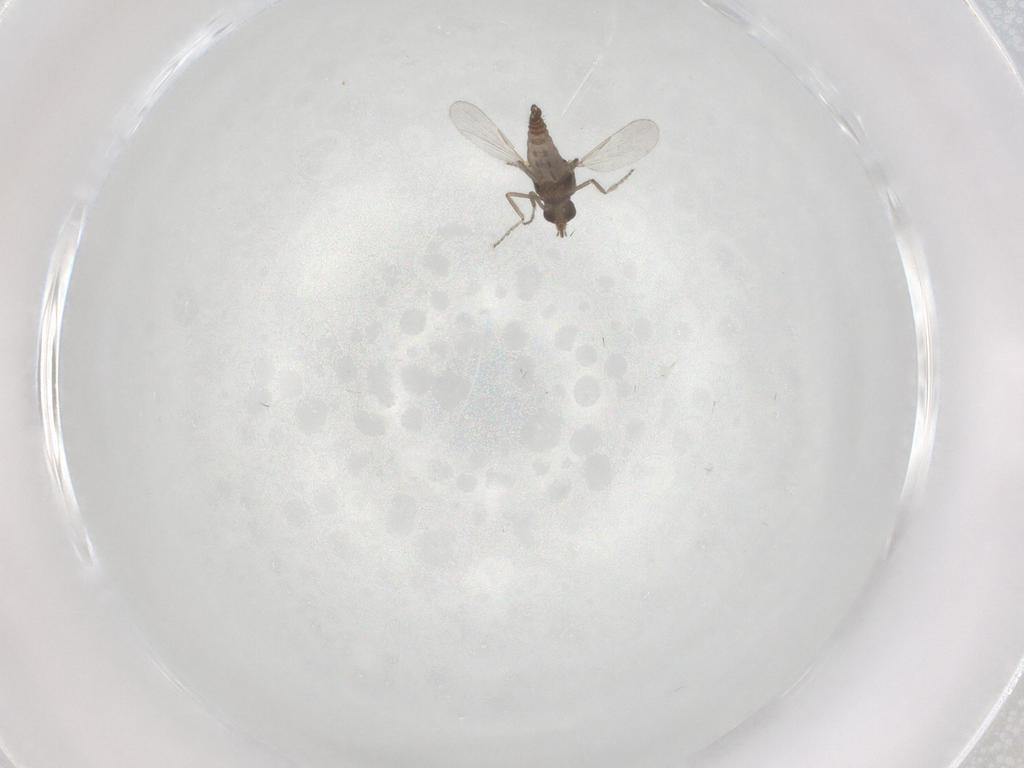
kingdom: Animalia
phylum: Arthropoda
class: Insecta
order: Diptera
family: Ceratopogonidae
